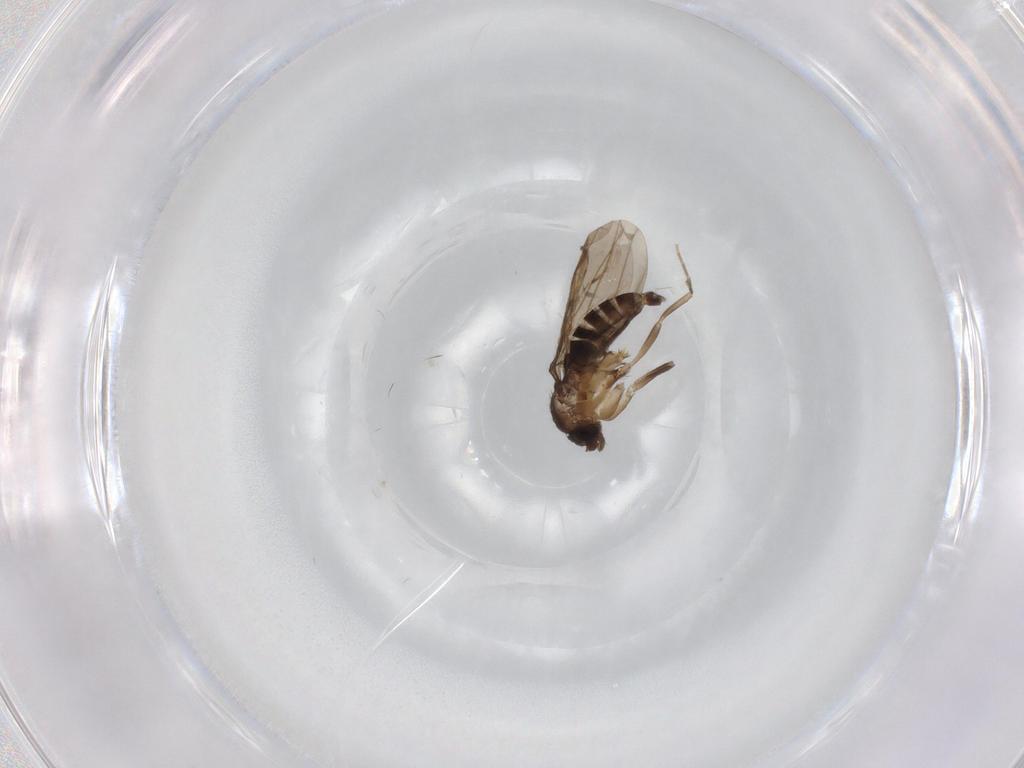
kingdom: Animalia
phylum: Arthropoda
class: Insecta
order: Diptera
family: Cecidomyiidae
